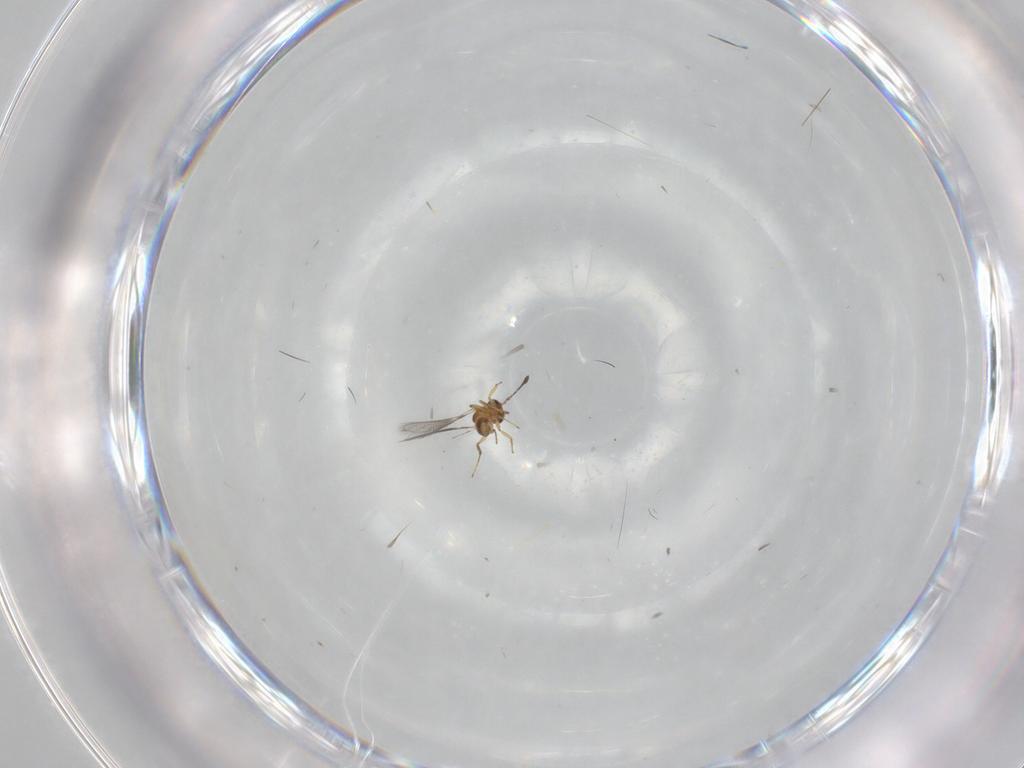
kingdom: Animalia
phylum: Arthropoda
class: Insecta
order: Hymenoptera
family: Mymaridae
